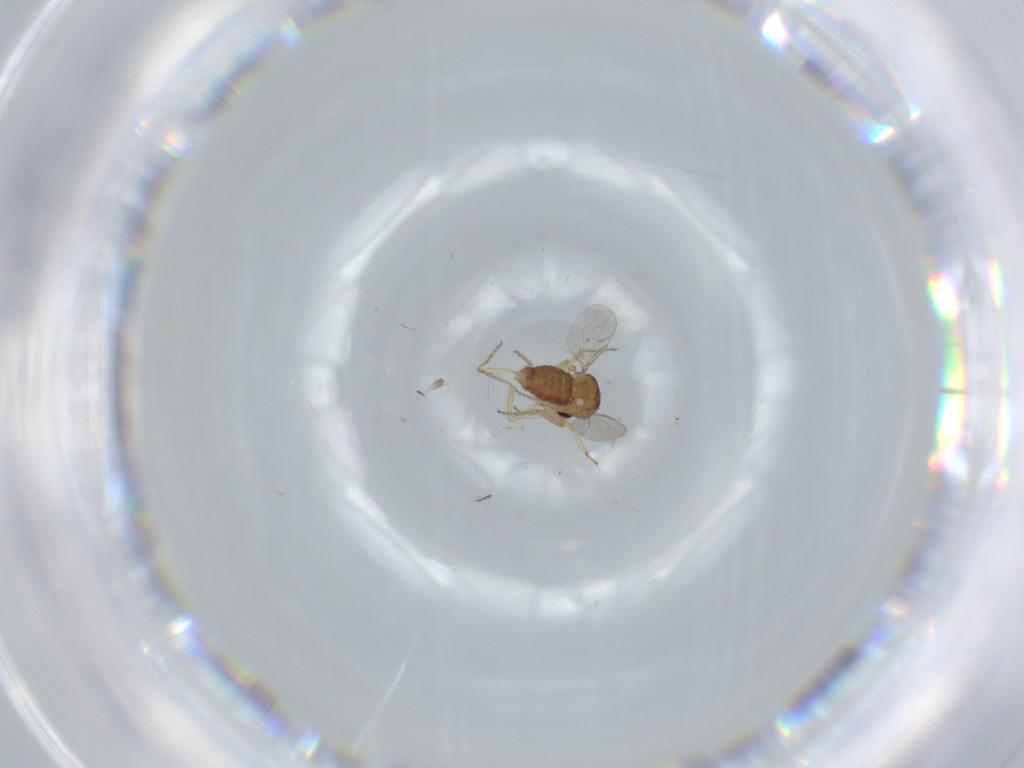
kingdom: Animalia
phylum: Arthropoda
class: Insecta
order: Diptera
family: Ceratopogonidae
